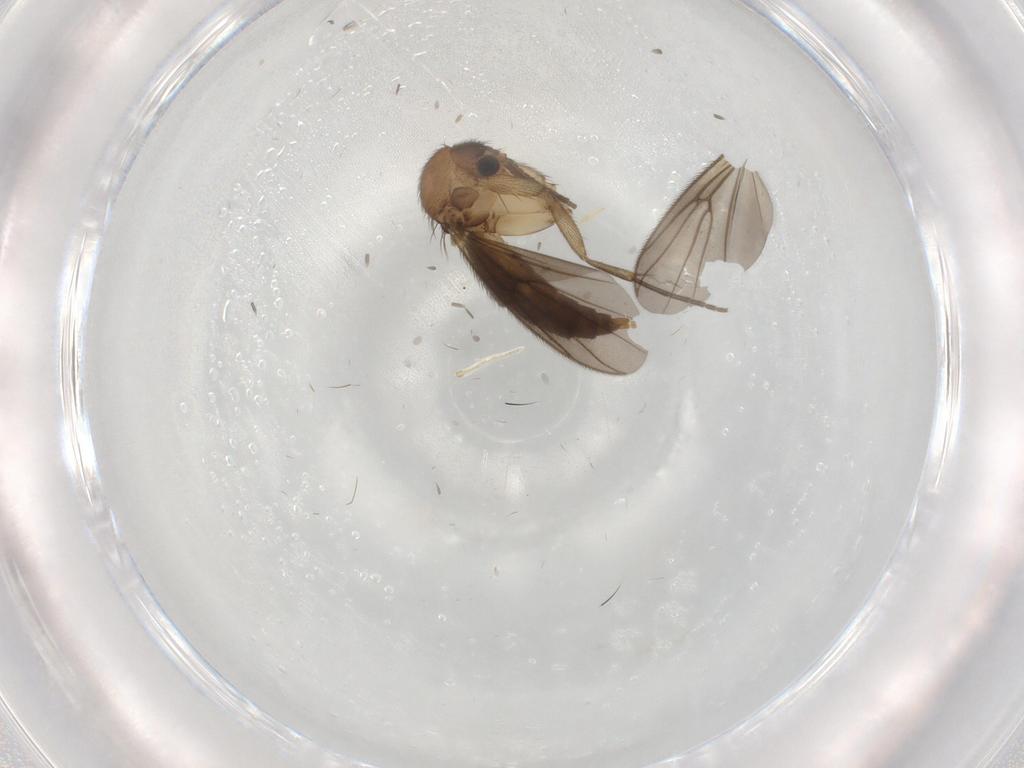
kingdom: Animalia
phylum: Arthropoda
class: Insecta
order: Diptera
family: Mycetophilidae
